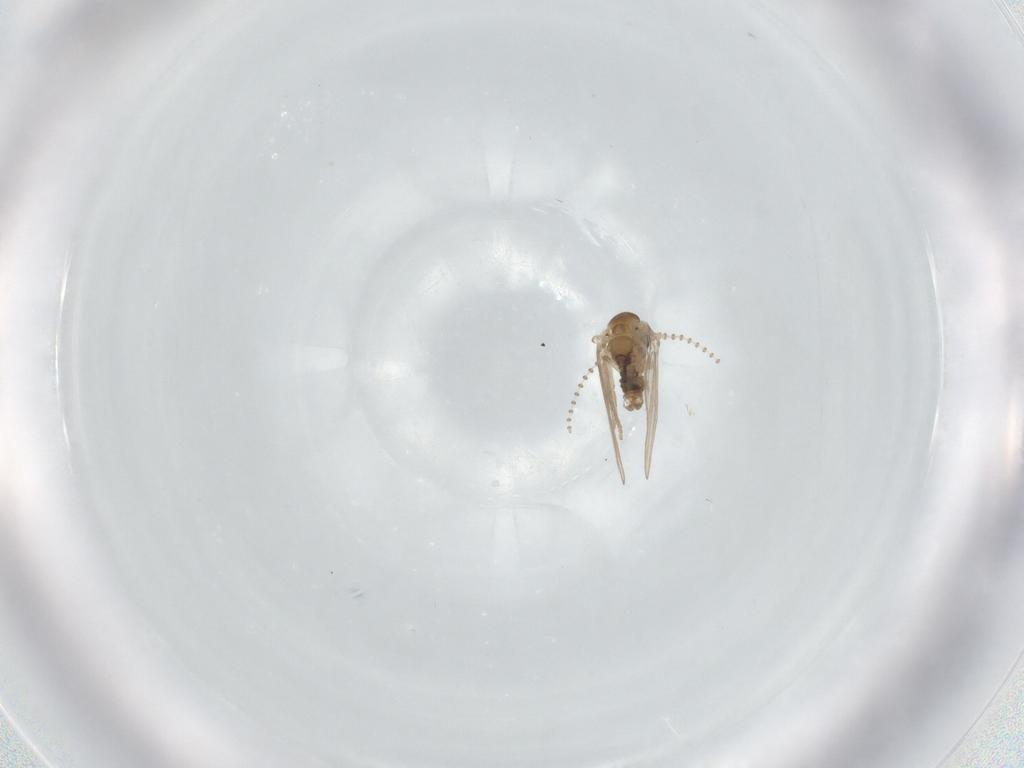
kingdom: Animalia
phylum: Arthropoda
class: Insecta
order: Diptera
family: Psychodidae
